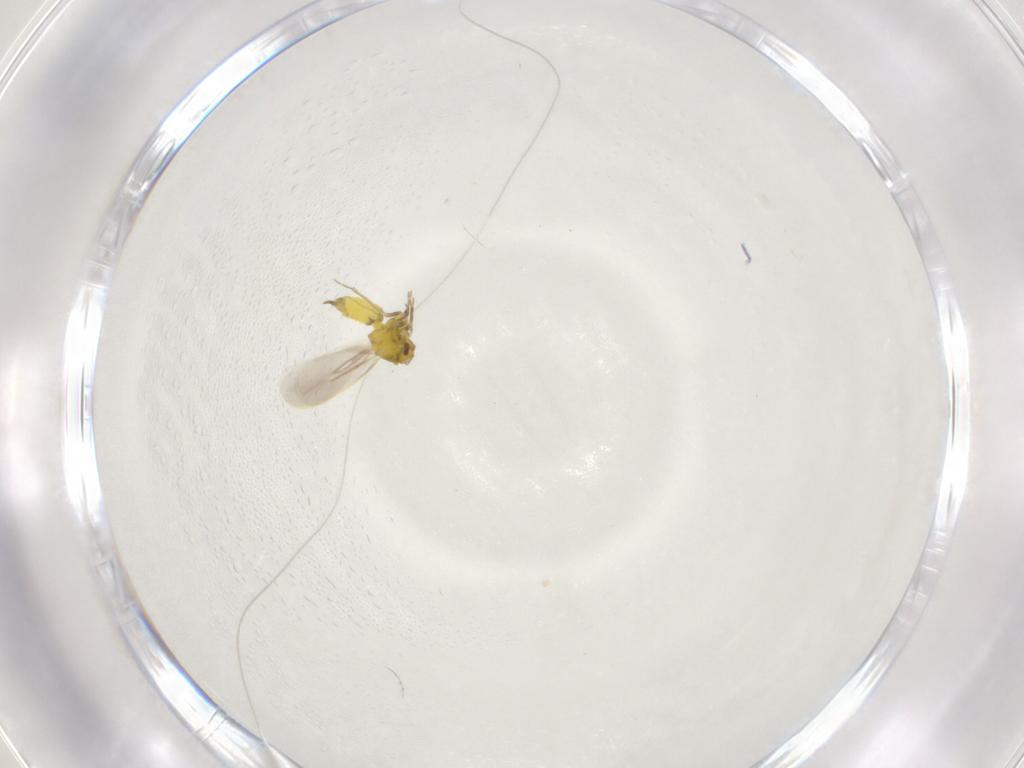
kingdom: Animalia
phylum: Arthropoda
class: Insecta
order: Hemiptera
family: Aleyrodidae
